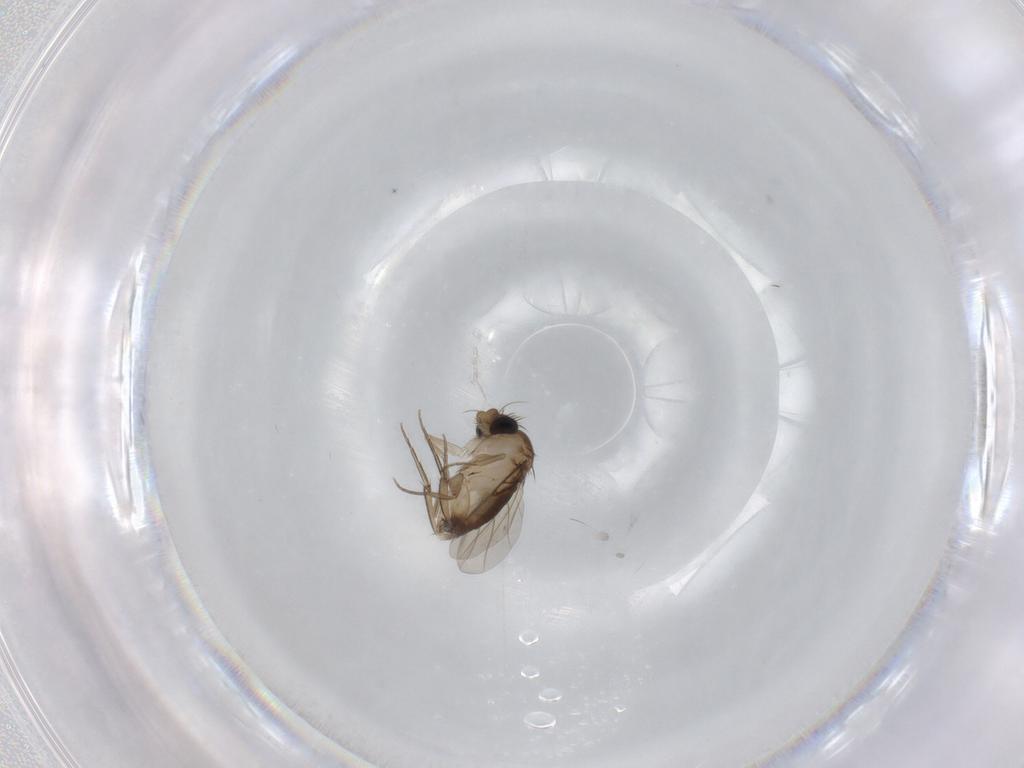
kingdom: Animalia
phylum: Arthropoda
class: Insecta
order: Diptera
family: Phoridae
